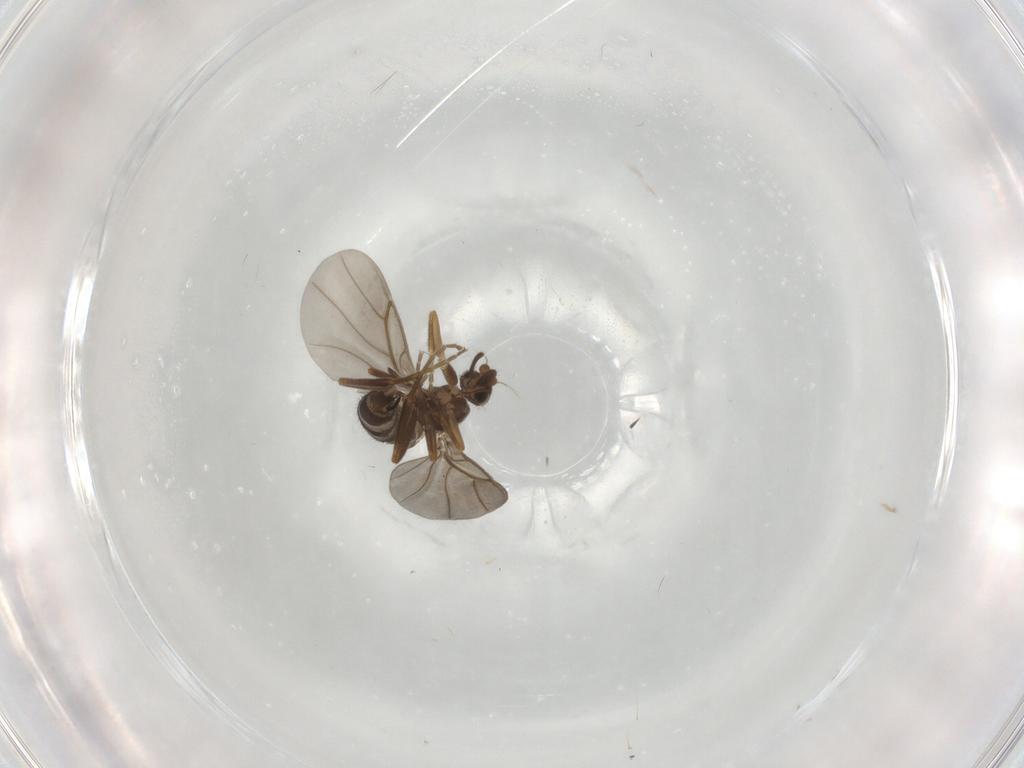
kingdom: Animalia
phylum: Arthropoda
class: Insecta
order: Diptera
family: Phoridae
